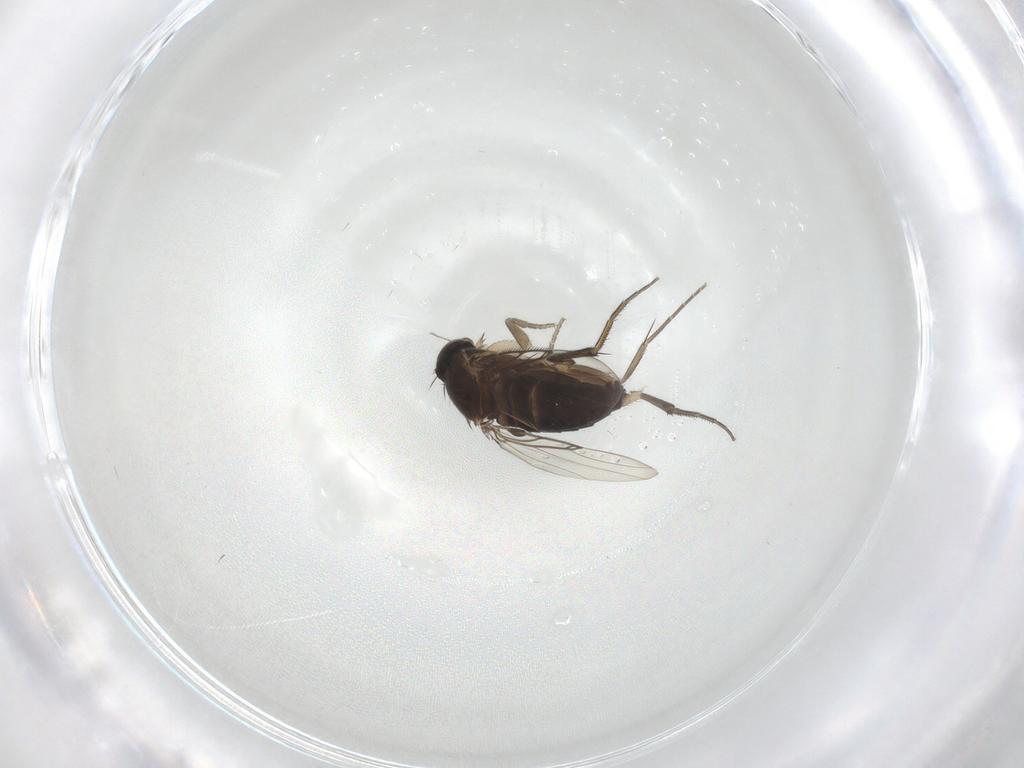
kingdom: Animalia
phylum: Arthropoda
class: Insecta
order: Diptera
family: Phoridae
